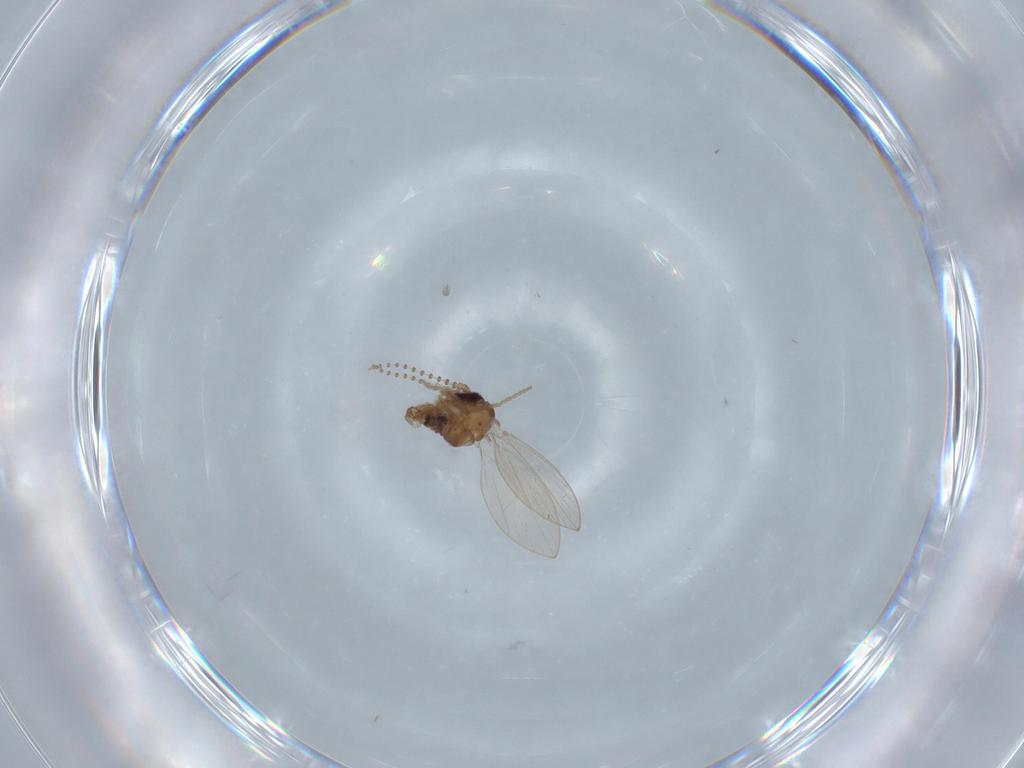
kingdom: Animalia
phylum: Arthropoda
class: Insecta
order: Diptera
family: Psychodidae
